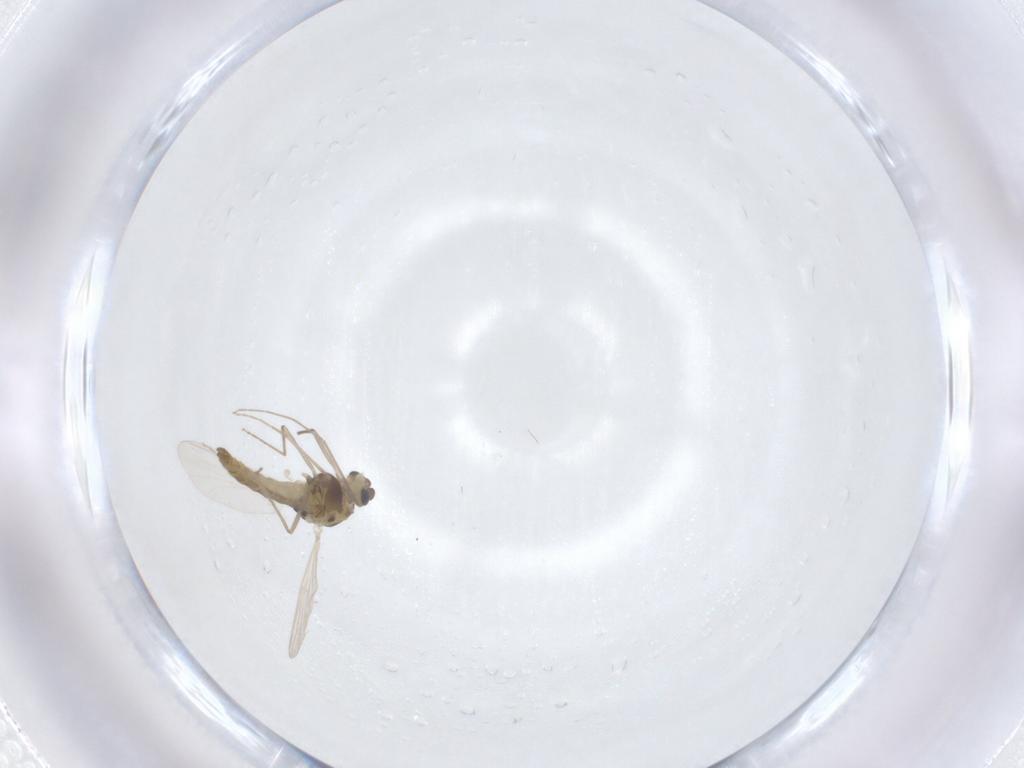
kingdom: Animalia
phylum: Arthropoda
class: Insecta
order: Diptera
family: Chironomidae
